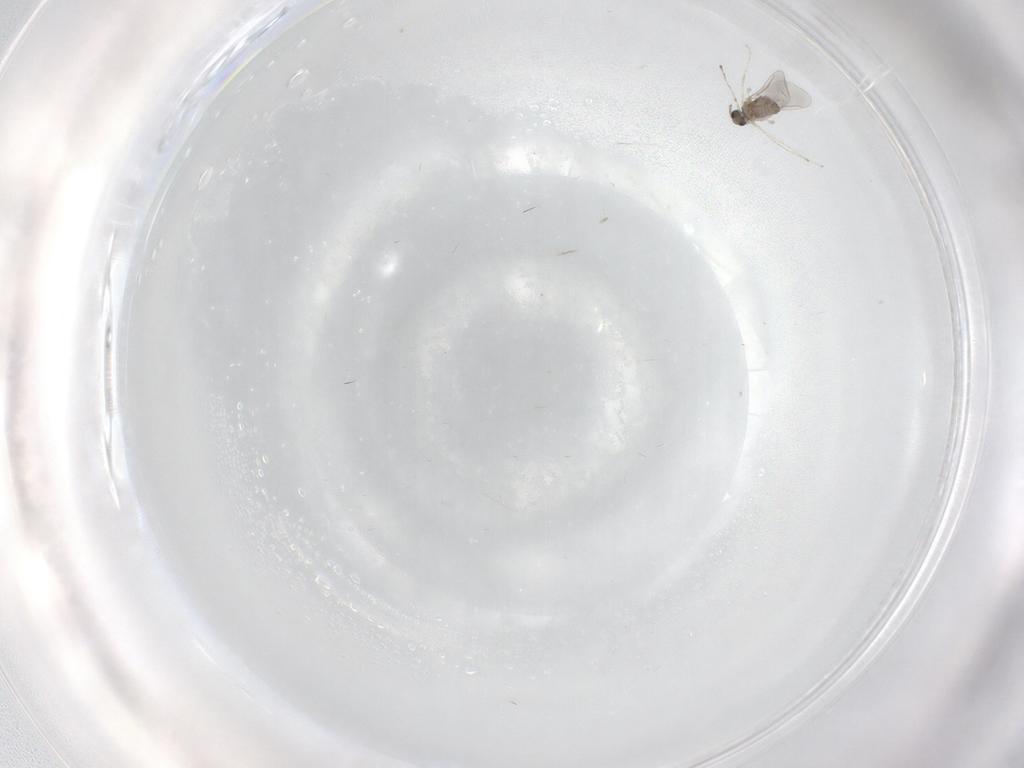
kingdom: Animalia
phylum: Arthropoda
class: Insecta
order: Diptera
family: Cecidomyiidae
